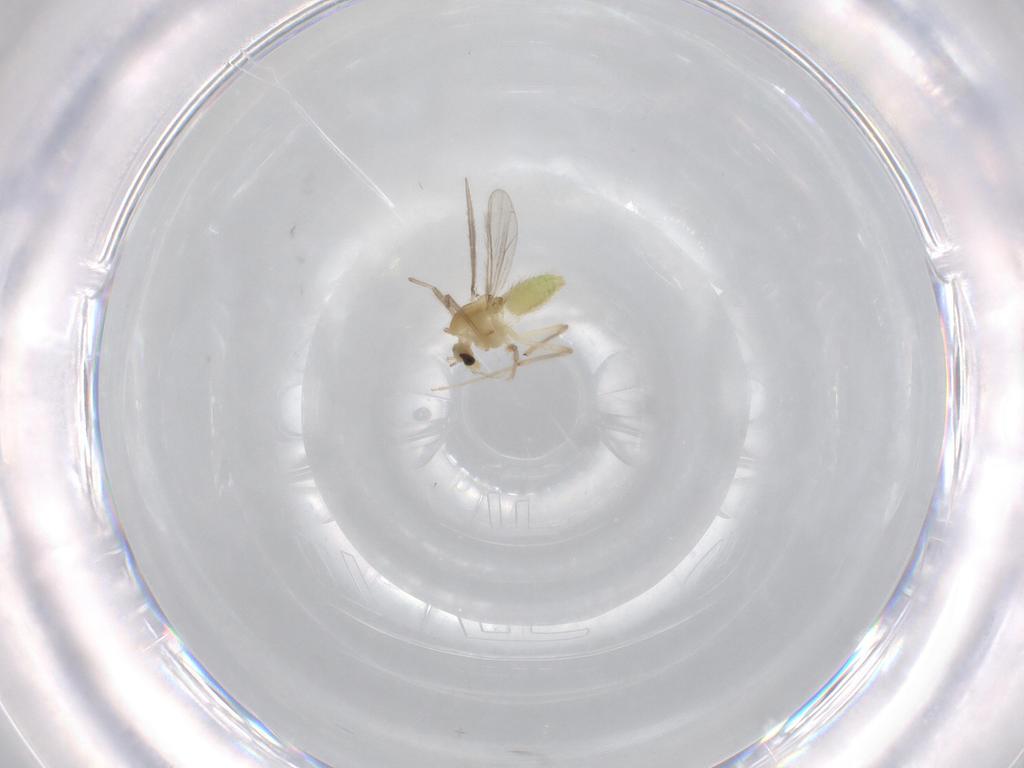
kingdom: Animalia
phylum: Arthropoda
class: Insecta
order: Diptera
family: Chironomidae
